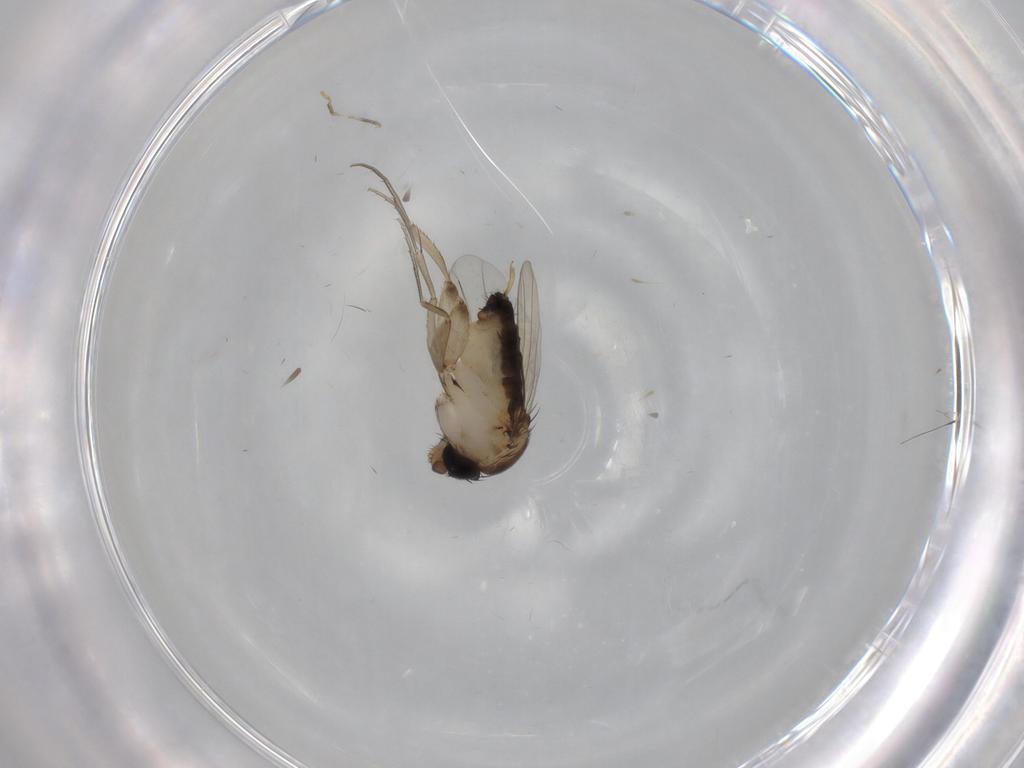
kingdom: Animalia
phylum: Arthropoda
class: Insecta
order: Diptera
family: Phoridae
